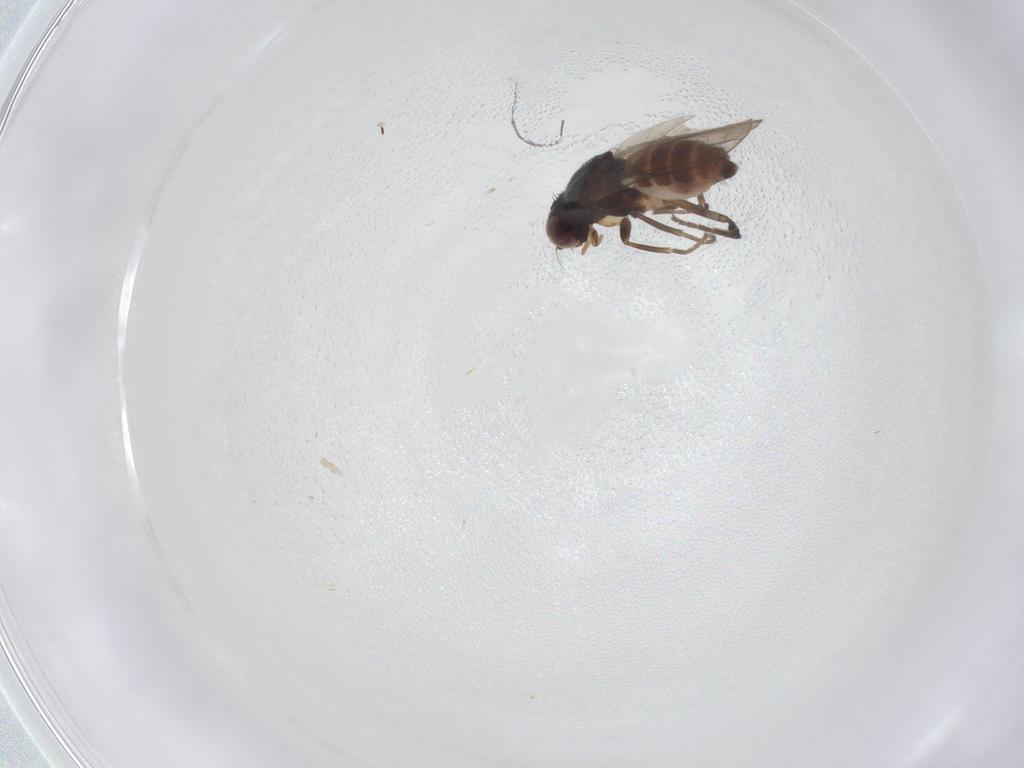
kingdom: Animalia
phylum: Arthropoda
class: Insecta
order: Diptera
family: Chloropidae
